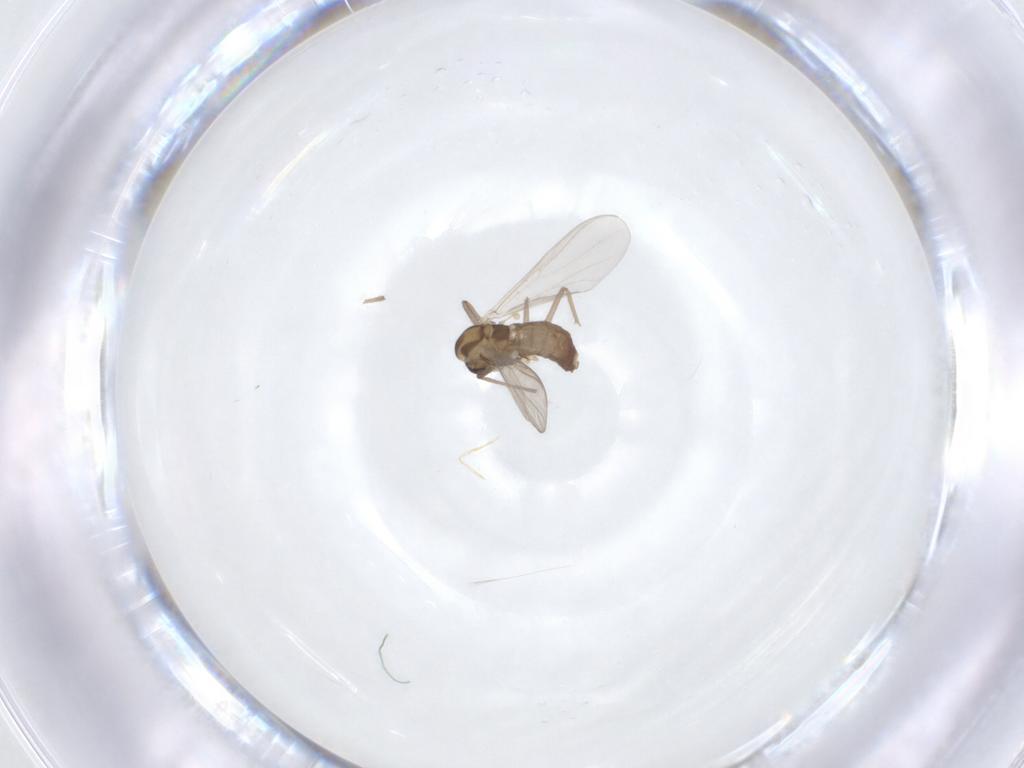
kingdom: Animalia
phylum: Arthropoda
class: Insecta
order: Diptera
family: Chironomidae
